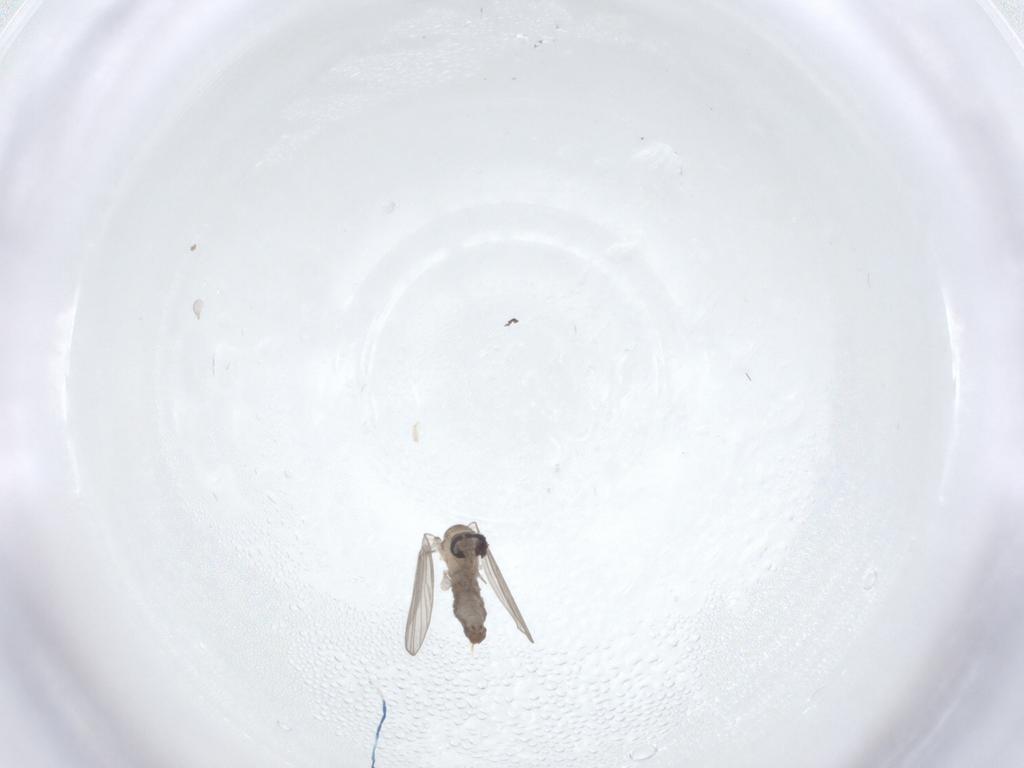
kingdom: Animalia
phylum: Arthropoda
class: Insecta
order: Diptera
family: Psychodidae
